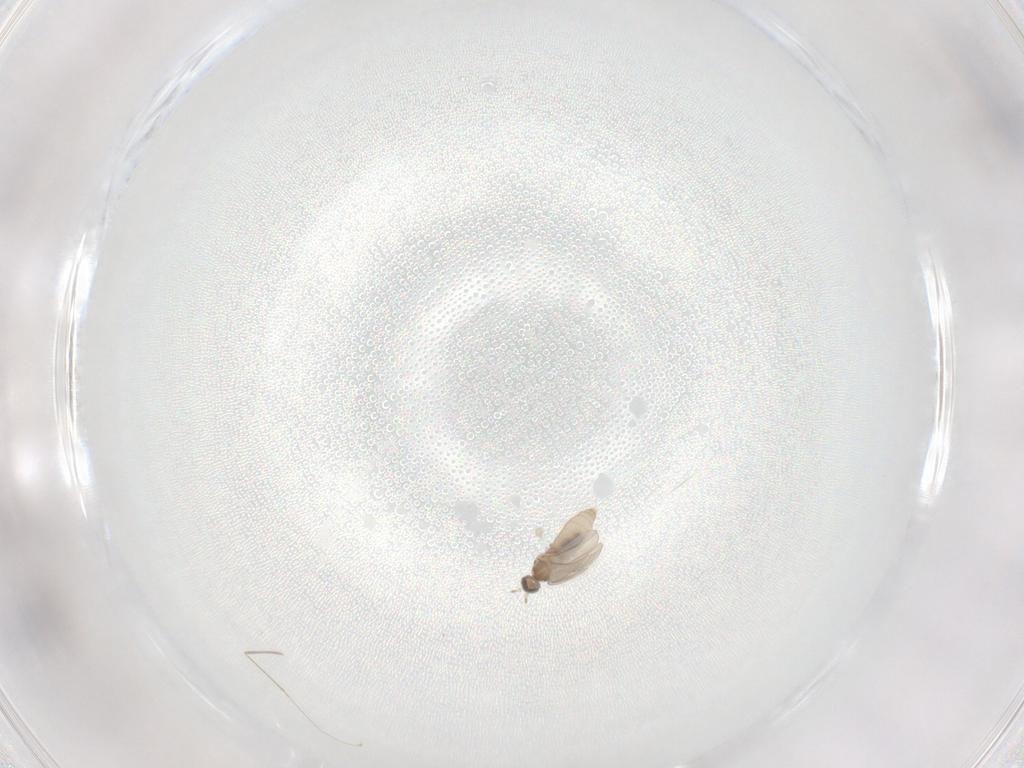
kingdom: Animalia
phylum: Arthropoda
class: Insecta
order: Diptera
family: Cecidomyiidae
